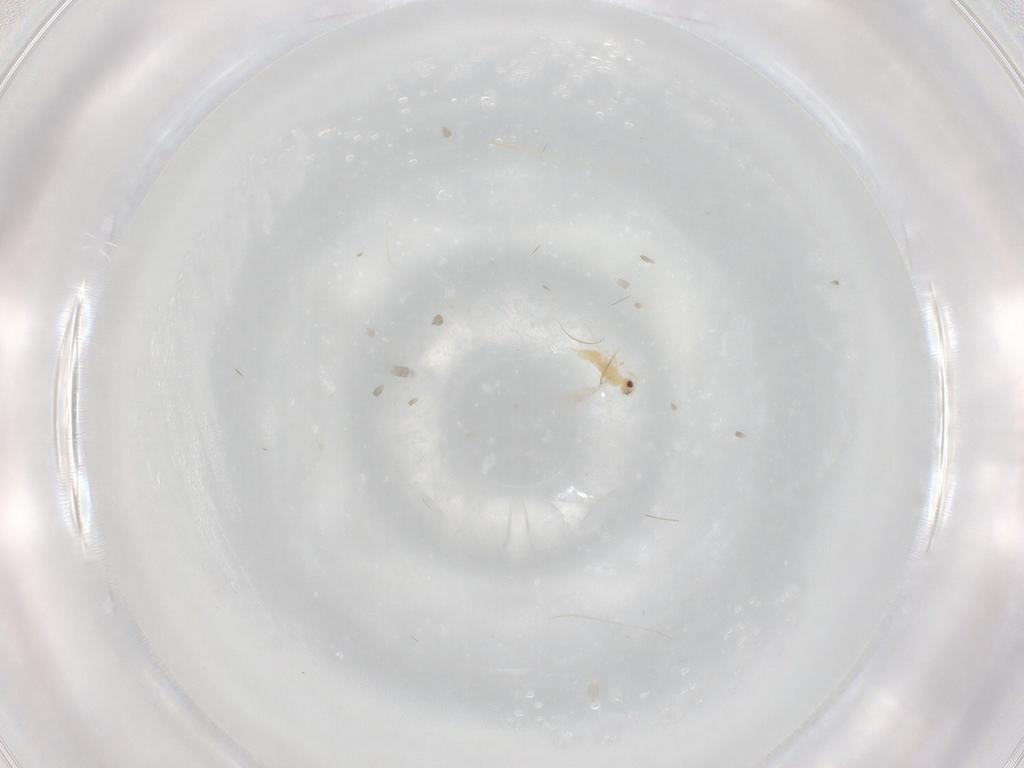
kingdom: Animalia
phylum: Arthropoda
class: Insecta
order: Hymenoptera
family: Aphelinidae
